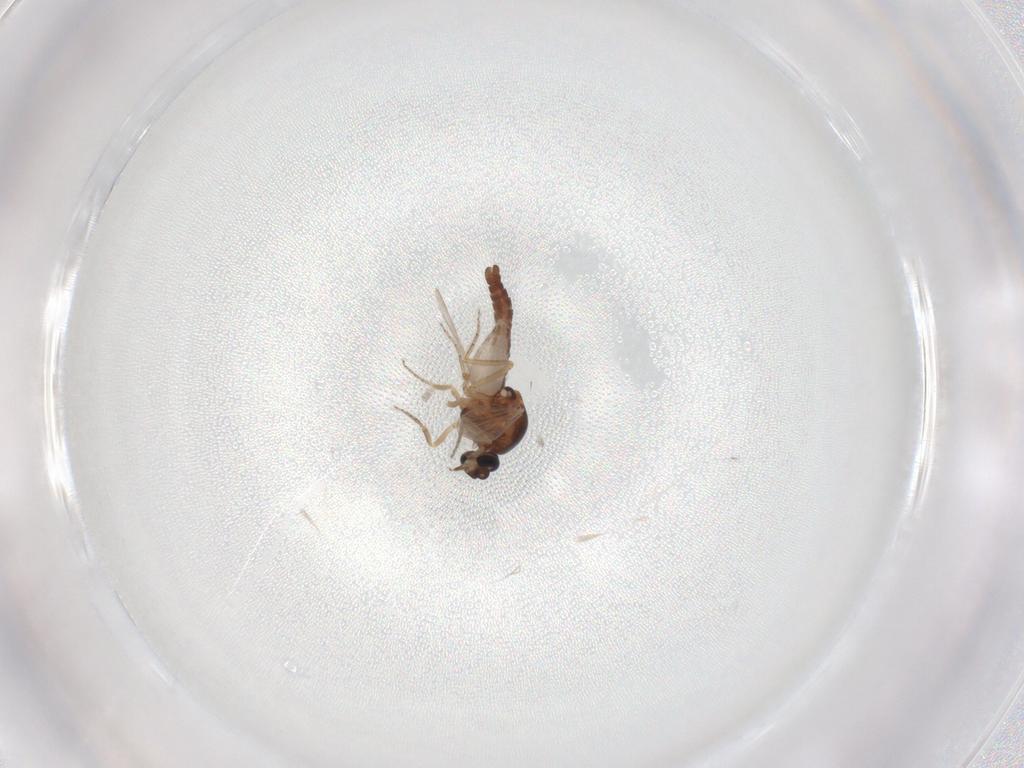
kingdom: Animalia
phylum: Arthropoda
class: Insecta
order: Diptera
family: Ceratopogonidae
